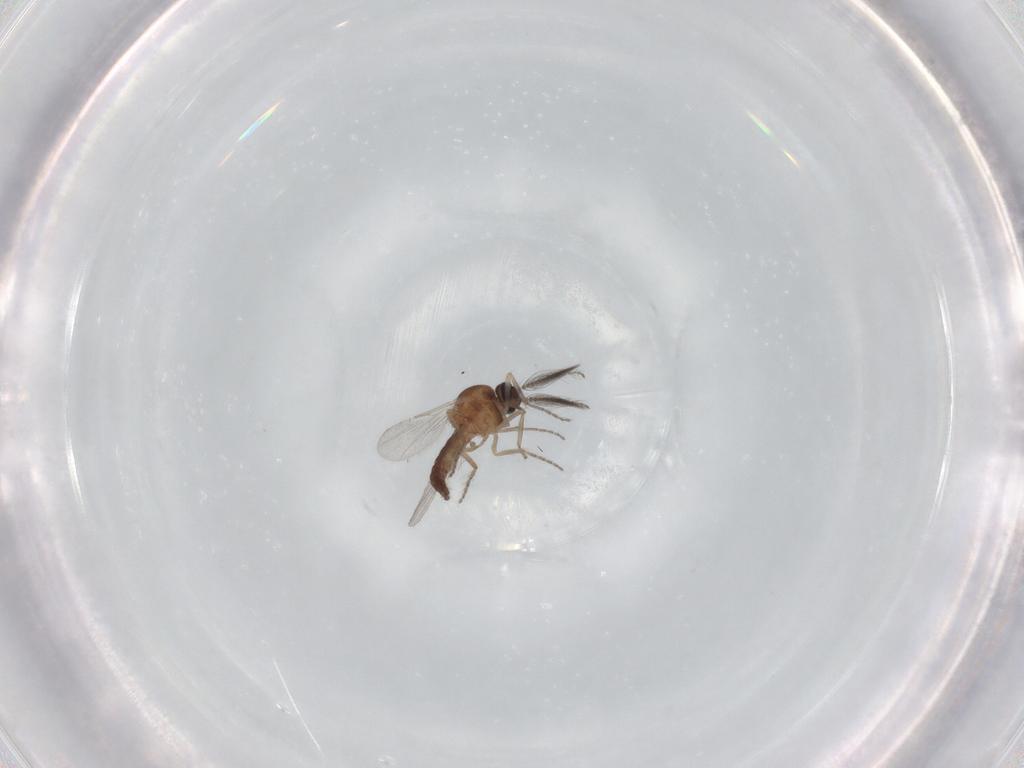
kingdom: Animalia
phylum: Arthropoda
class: Insecta
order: Diptera
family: Ceratopogonidae
